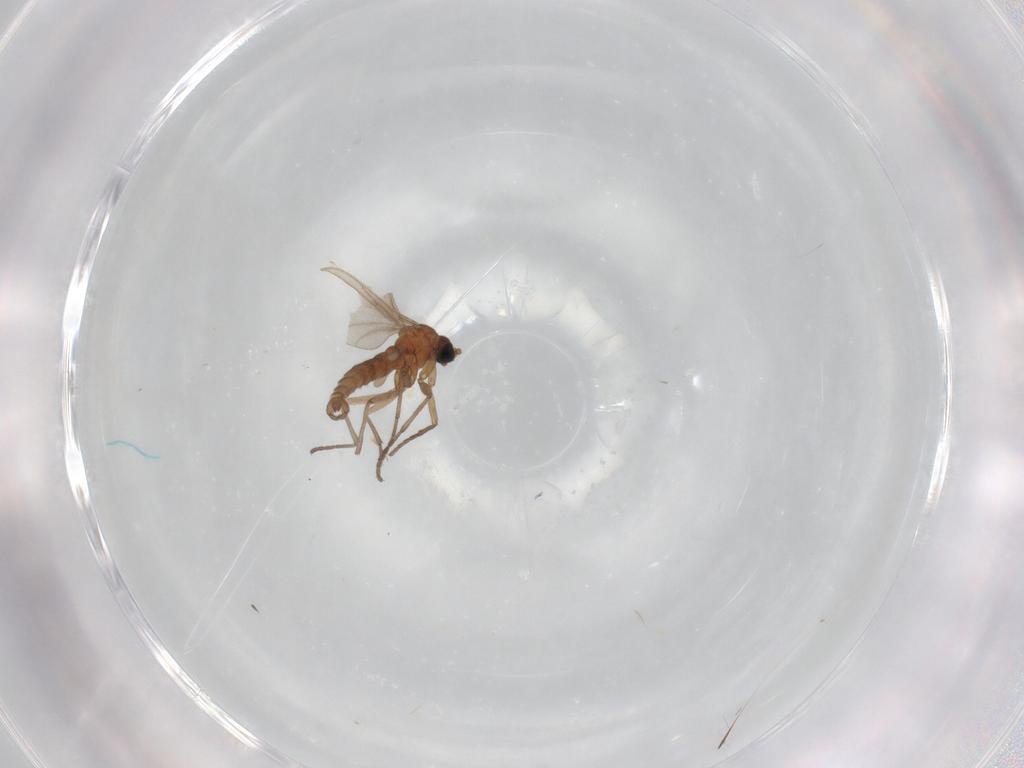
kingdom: Animalia
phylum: Arthropoda
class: Insecta
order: Diptera
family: Sciaridae
